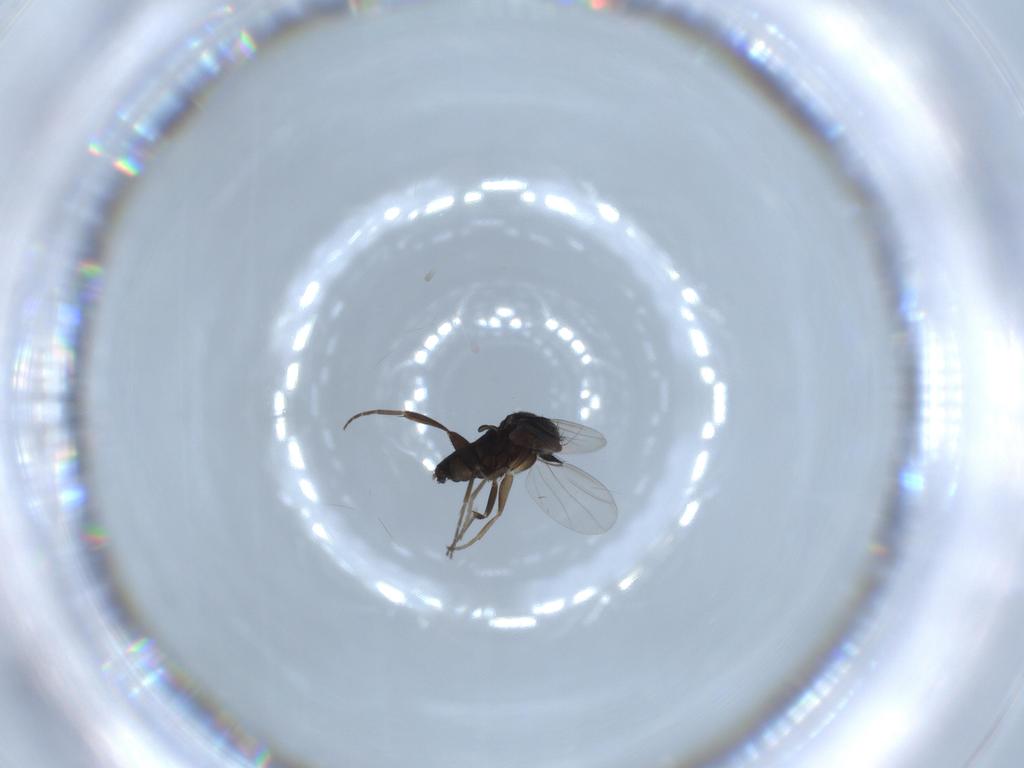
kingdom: Animalia
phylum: Arthropoda
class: Insecta
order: Diptera
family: Phoridae
